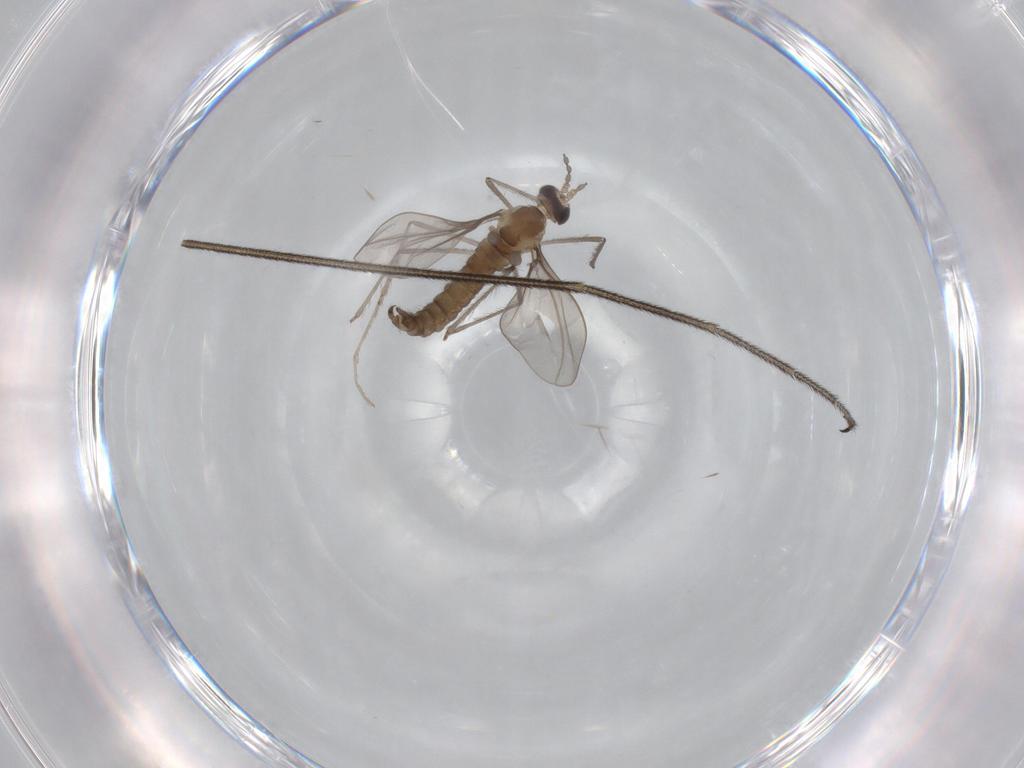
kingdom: Animalia
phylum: Arthropoda
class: Insecta
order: Diptera
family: Keroplatidae
